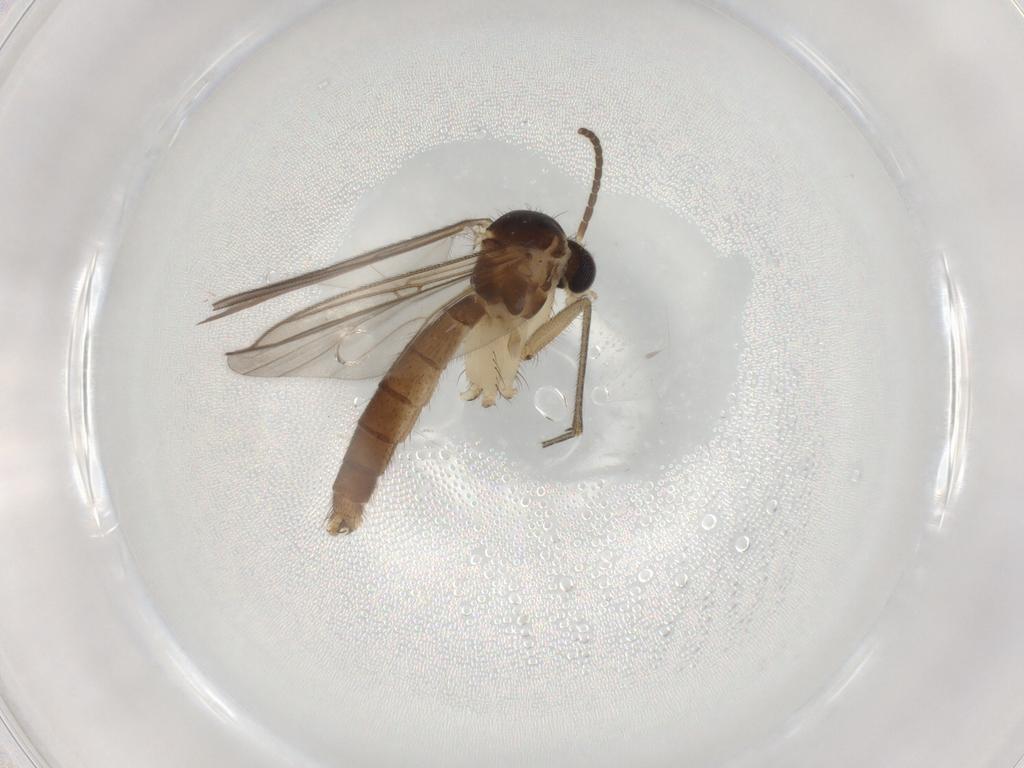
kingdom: Animalia
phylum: Arthropoda
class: Insecta
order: Diptera
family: Mycetophilidae
